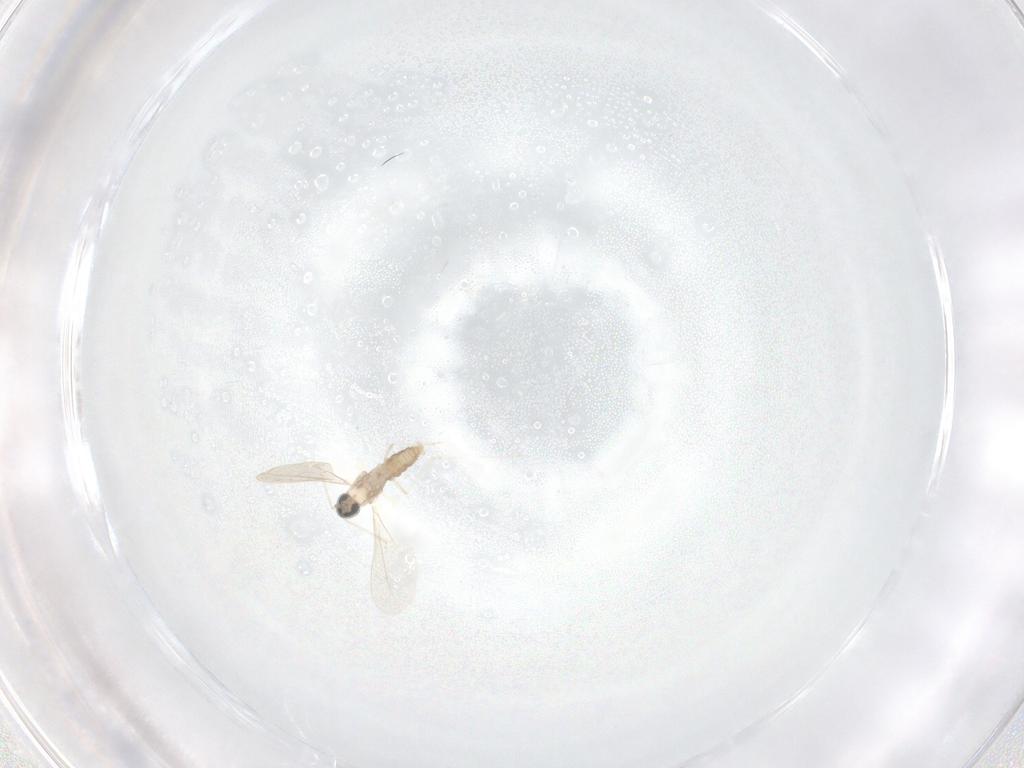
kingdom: Animalia
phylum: Arthropoda
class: Insecta
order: Diptera
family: Cecidomyiidae
